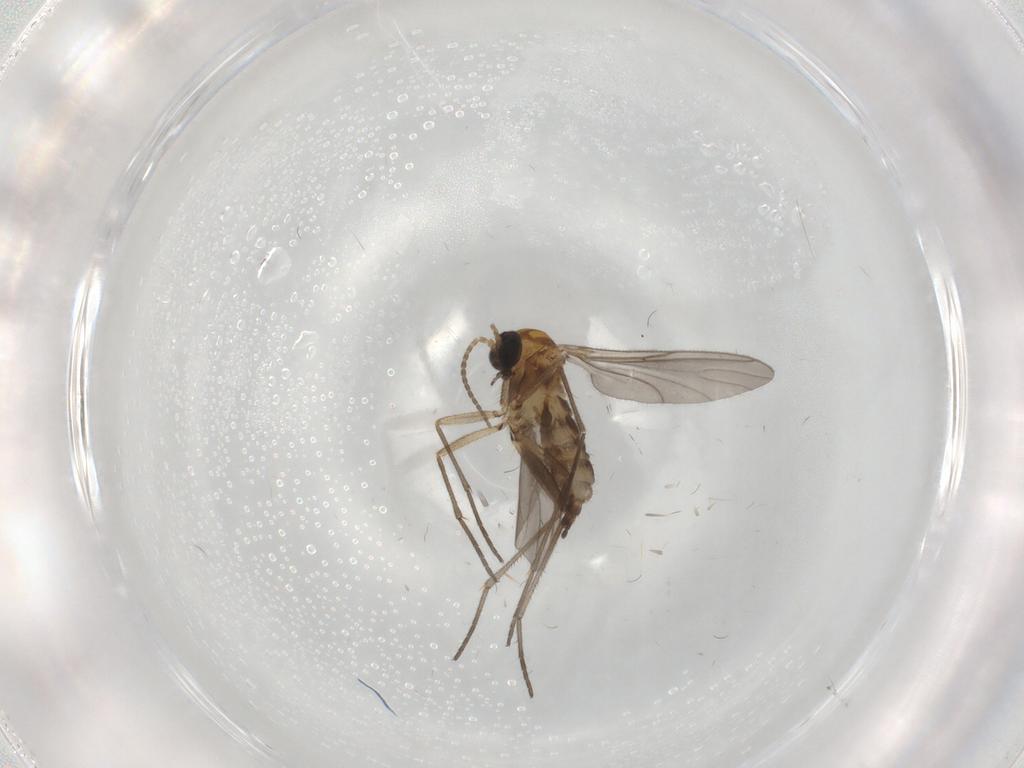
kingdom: Animalia
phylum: Arthropoda
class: Insecta
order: Diptera
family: Sciaridae
